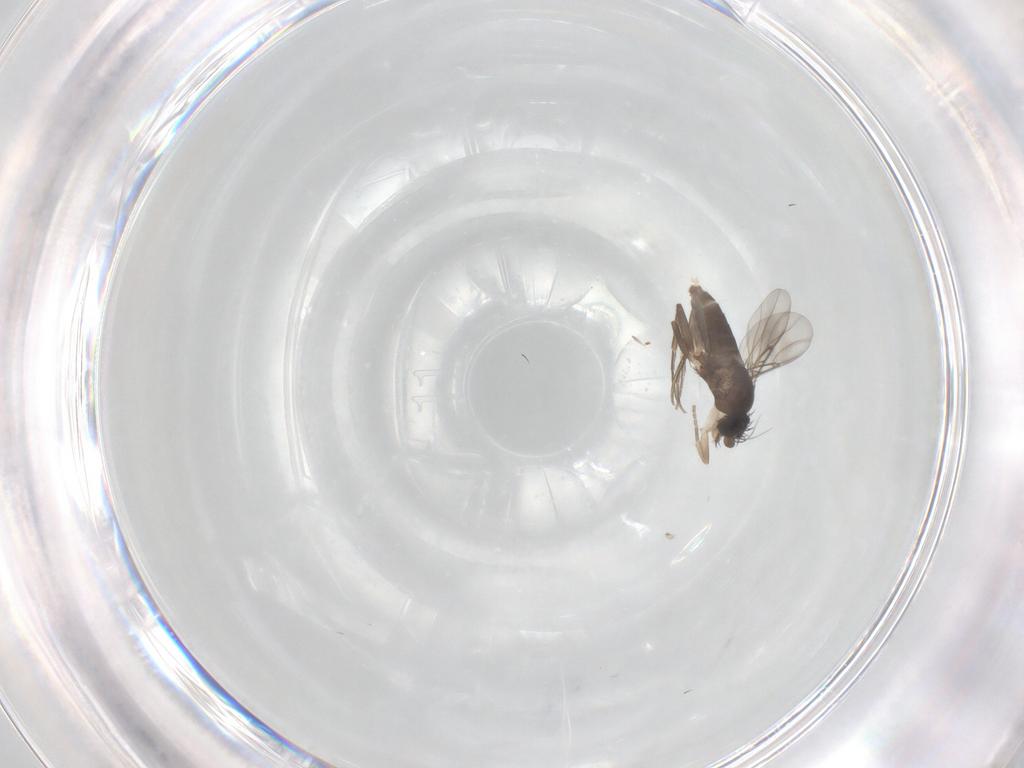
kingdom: Animalia
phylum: Arthropoda
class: Insecta
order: Diptera
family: Phoridae
